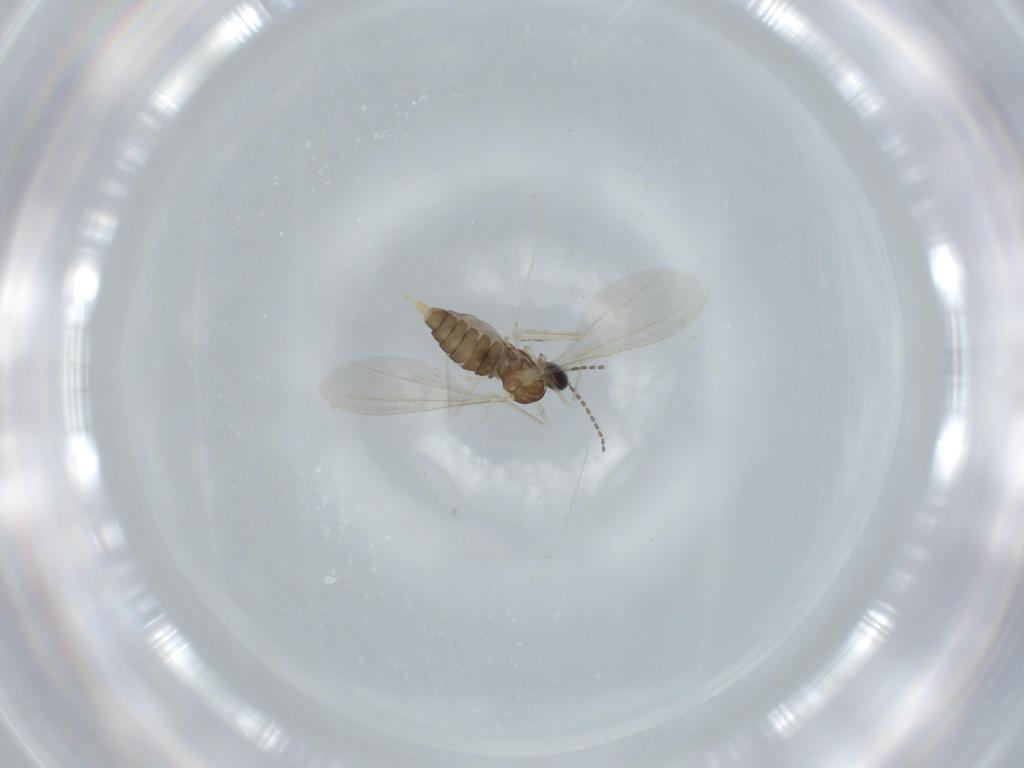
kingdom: Animalia
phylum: Arthropoda
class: Insecta
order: Diptera
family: Cecidomyiidae
